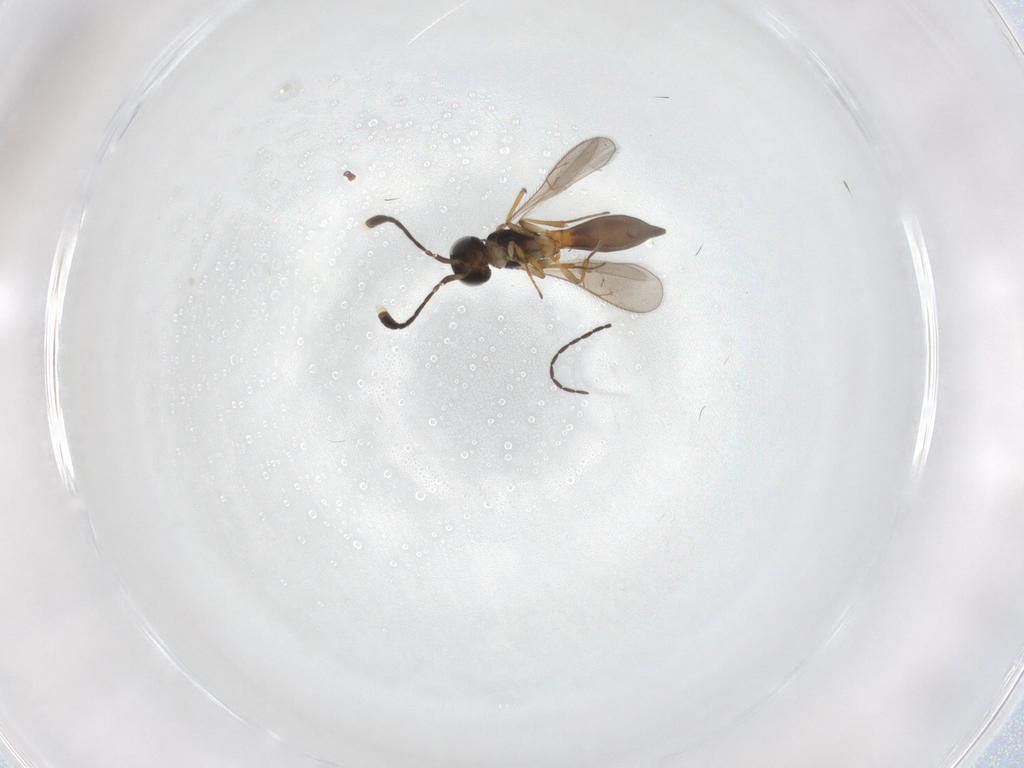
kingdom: Animalia
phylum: Arthropoda
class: Insecta
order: Hymenoptera
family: Figitidae
